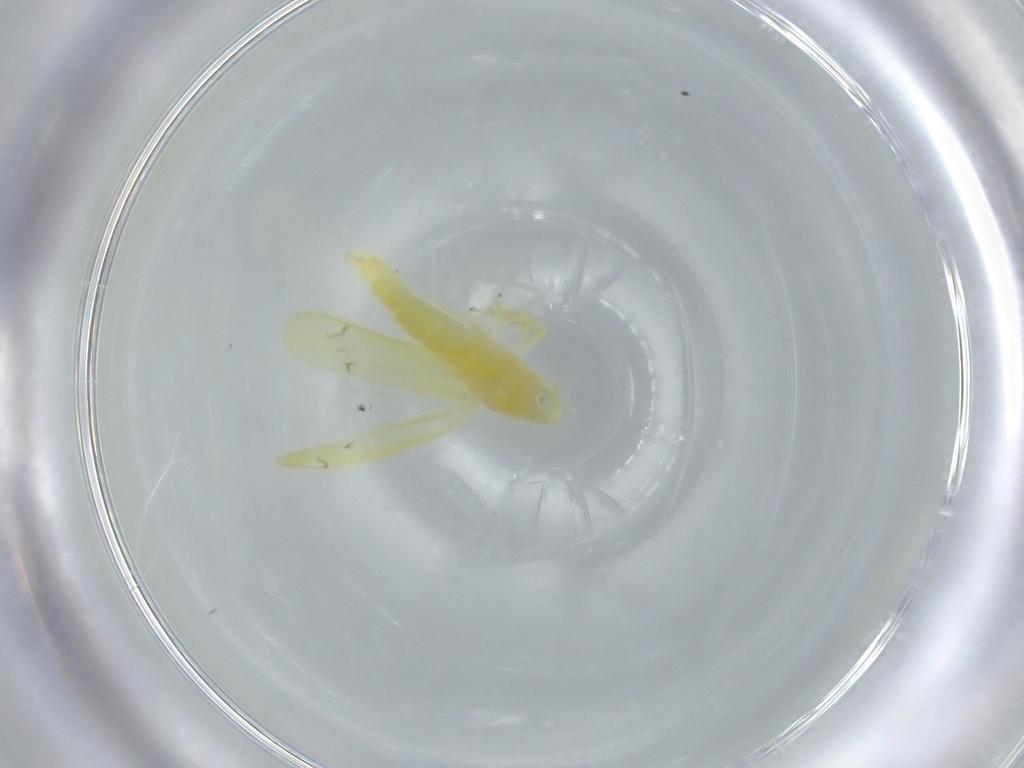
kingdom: Animalia
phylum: Arthropoda
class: Insecta
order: Hemiptera
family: Cicadellidae
